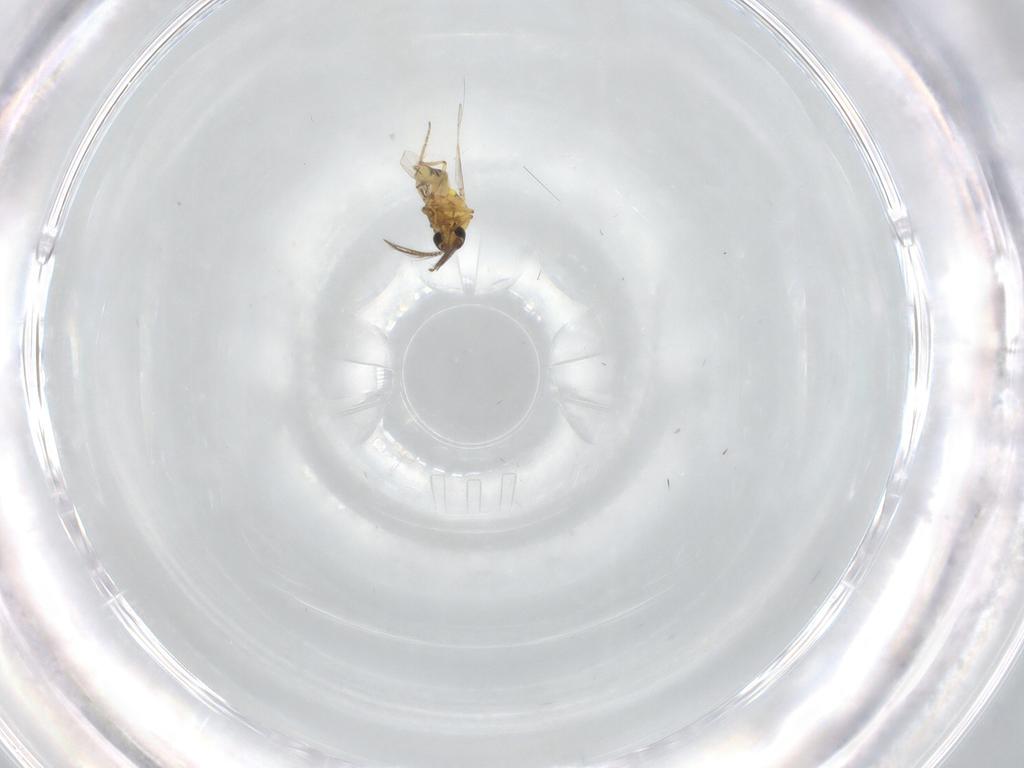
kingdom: Animalia
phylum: Arthropoda
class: Insecta
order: Diptera
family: Ceratopogonidae
